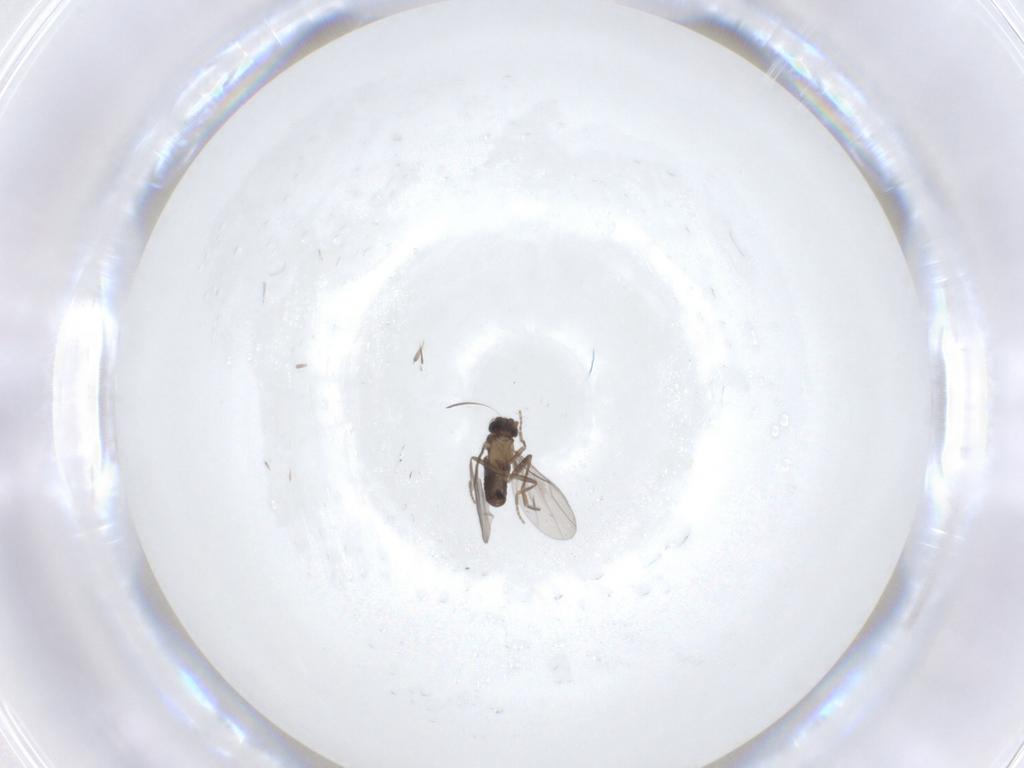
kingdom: Animalia
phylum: Arthropoda
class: Insecta
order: Diptera
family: Phoridae
